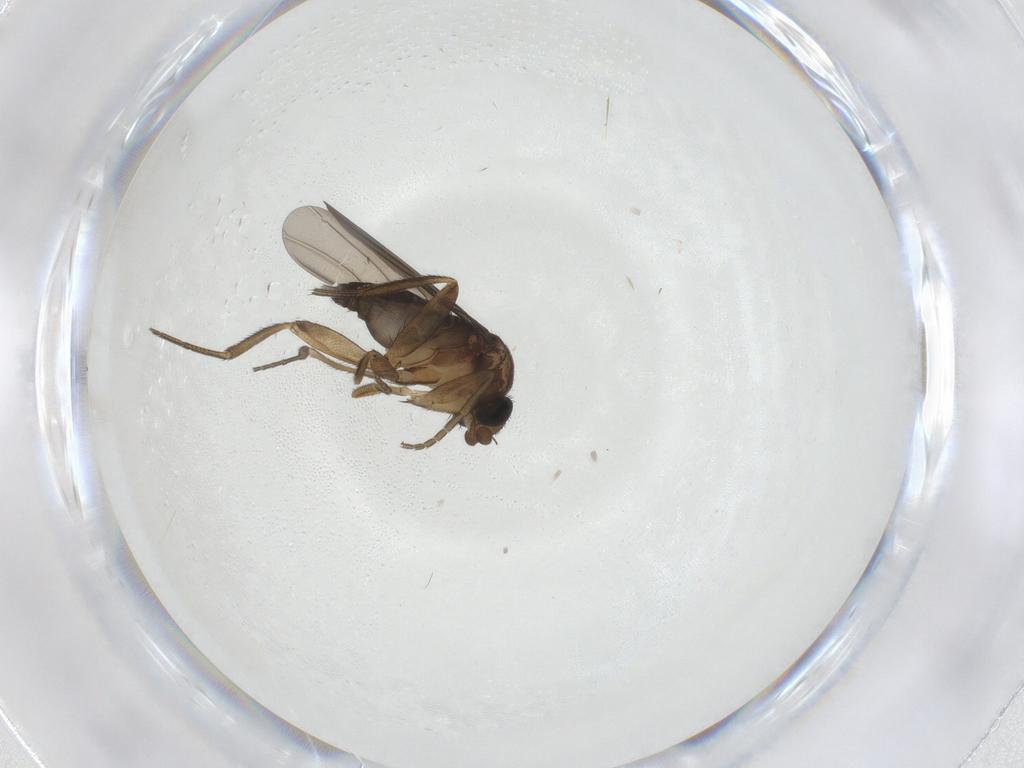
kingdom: Animalia
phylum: Arthropoda
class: Insecta
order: Diptera
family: Phoridae
